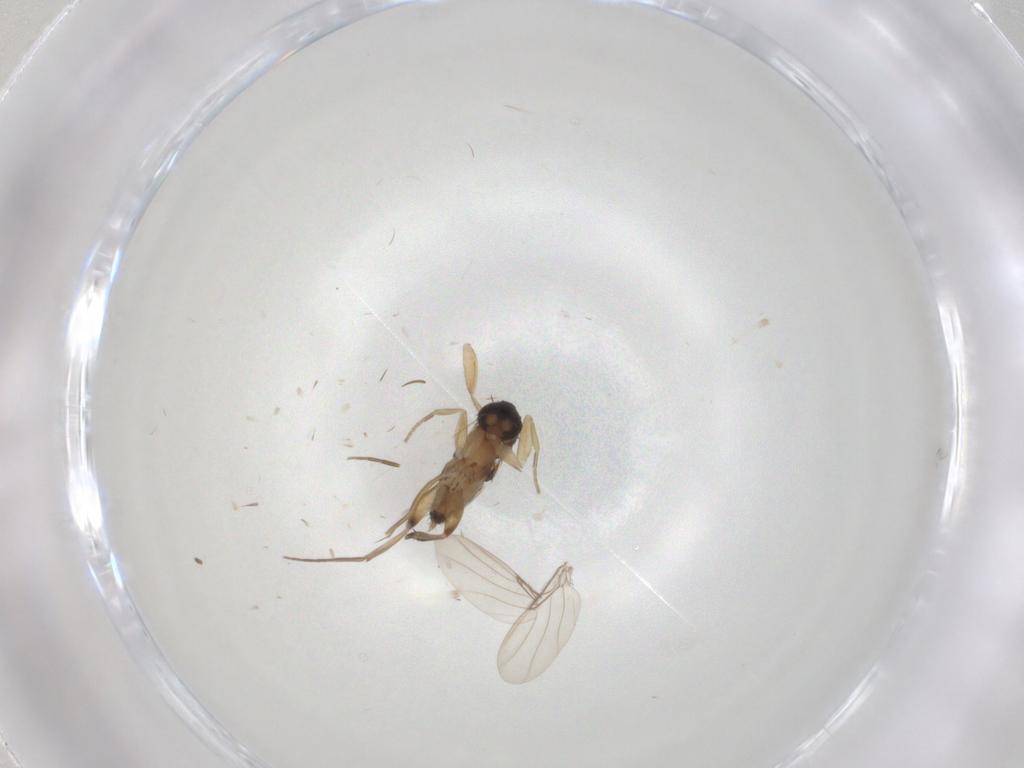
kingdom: Animalia
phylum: Arthropoda
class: Insecta
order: Diptera
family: Phoridae
